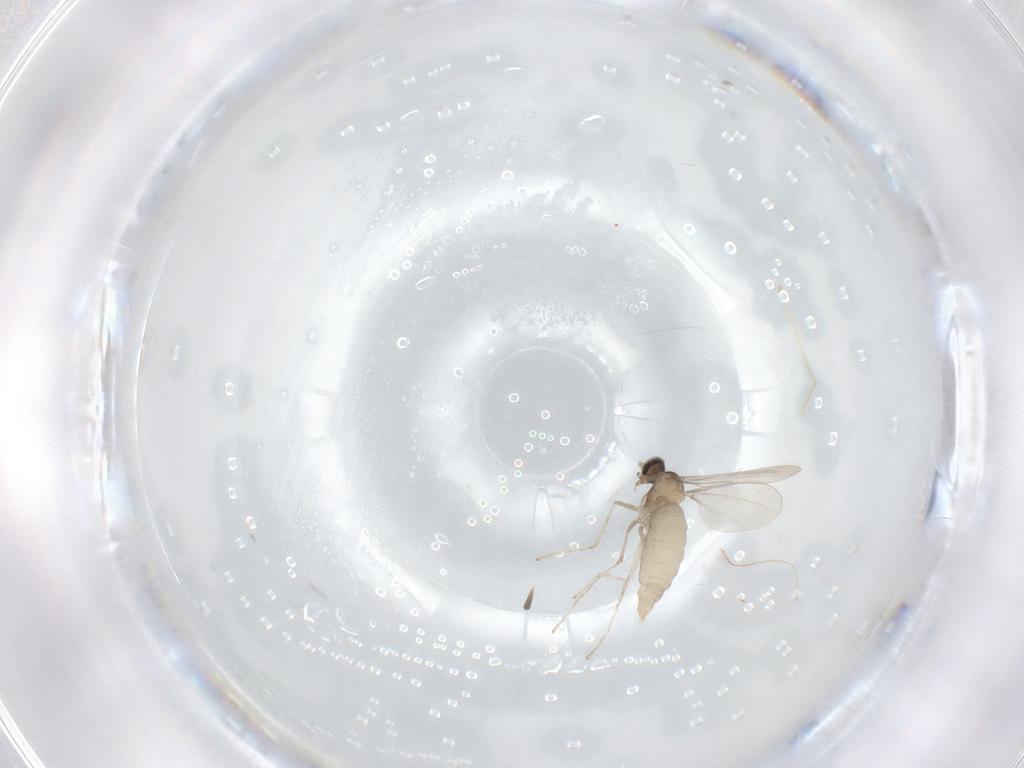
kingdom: Animalia
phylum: Arthropoda
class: Insecta
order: Diptera
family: Cecidomyiidae
